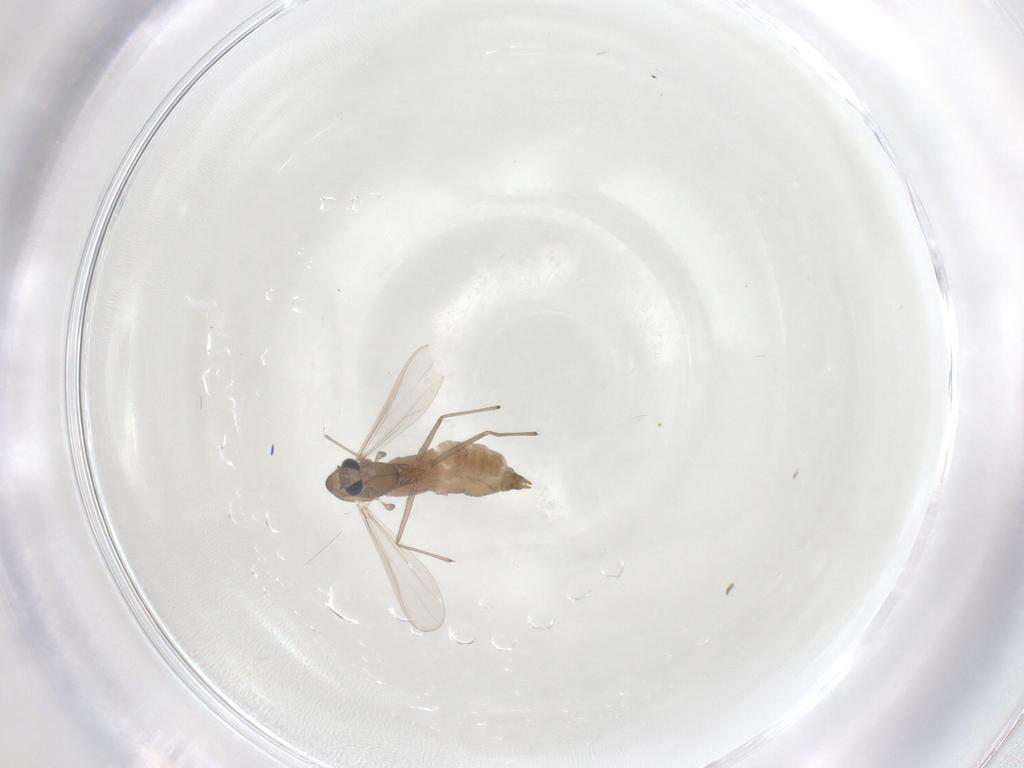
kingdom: Animalia
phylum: Arthropoda
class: Insecta
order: Diptera
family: Chironomidae
